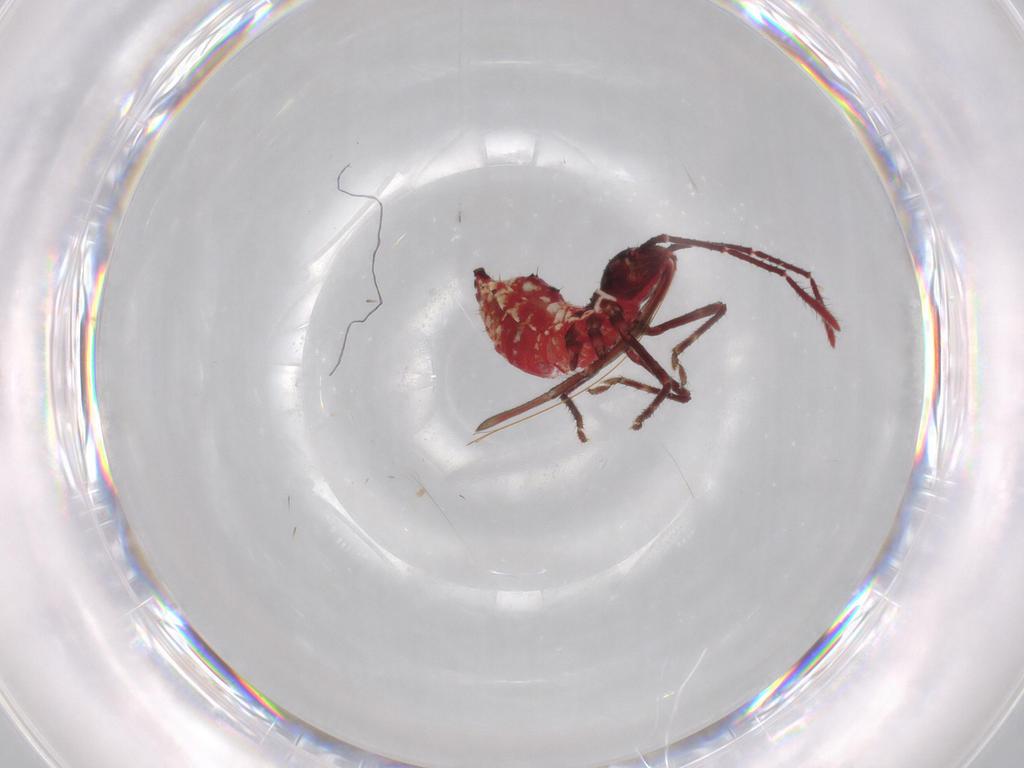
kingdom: Animalia
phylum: Arthropoda
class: Insecta
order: Hemiptera
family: Coreidae
